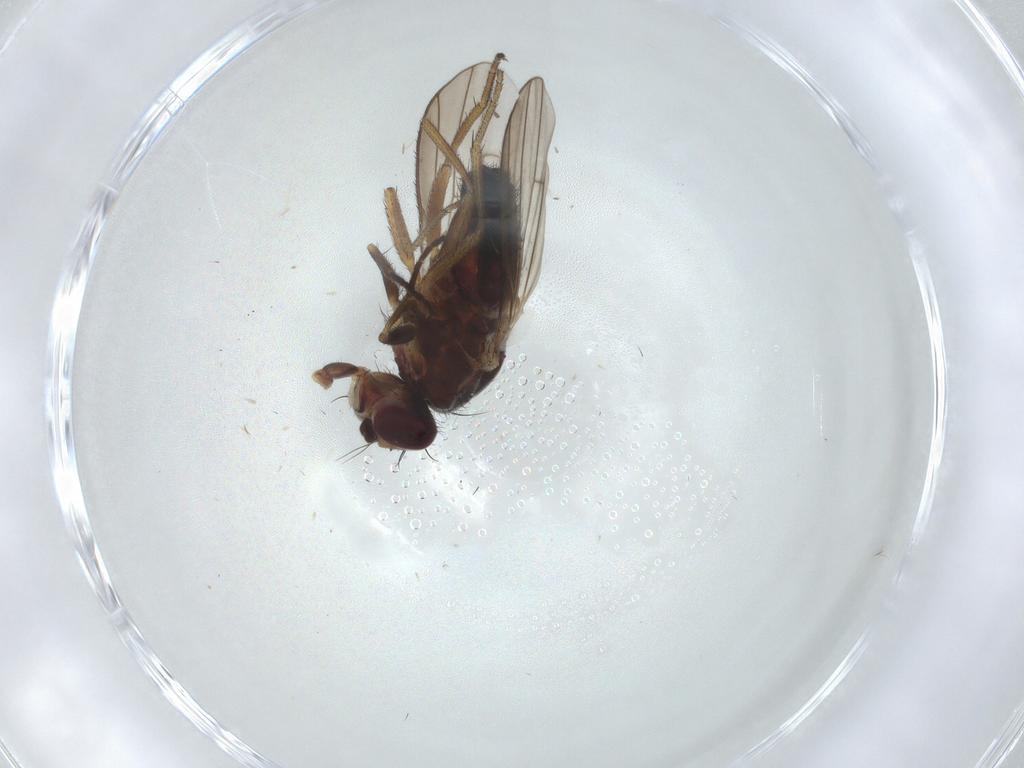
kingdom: Animalia
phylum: Arthropoda
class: Insecta
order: Diptera
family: Heleomyzidae
